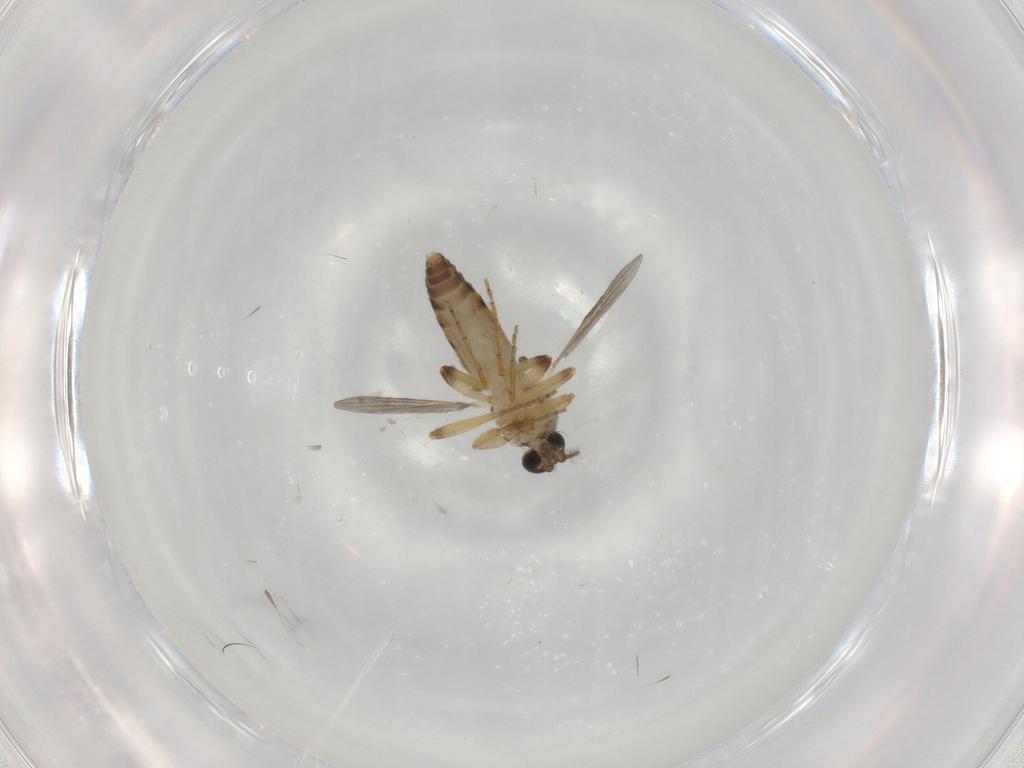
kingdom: Animalia
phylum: Arthropoda
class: Insecta
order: Diptera
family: Ceratopogonidae
